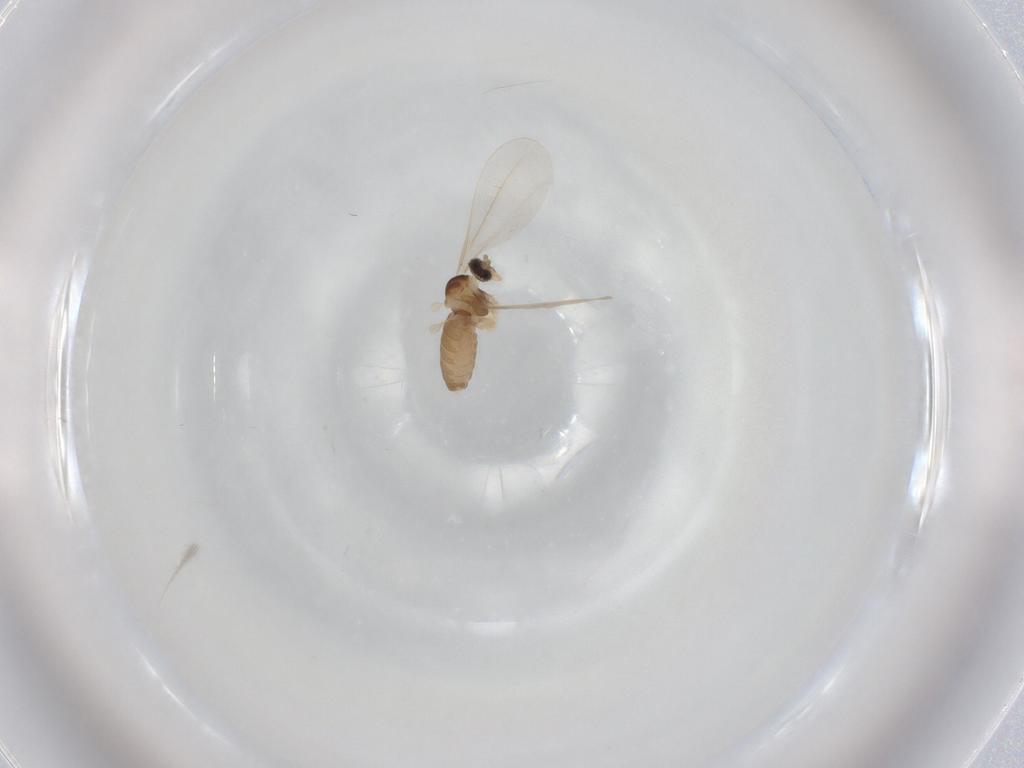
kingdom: Animalia
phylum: Arthropoda
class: Insecta
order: Diptera
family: Cecidomyiidae
